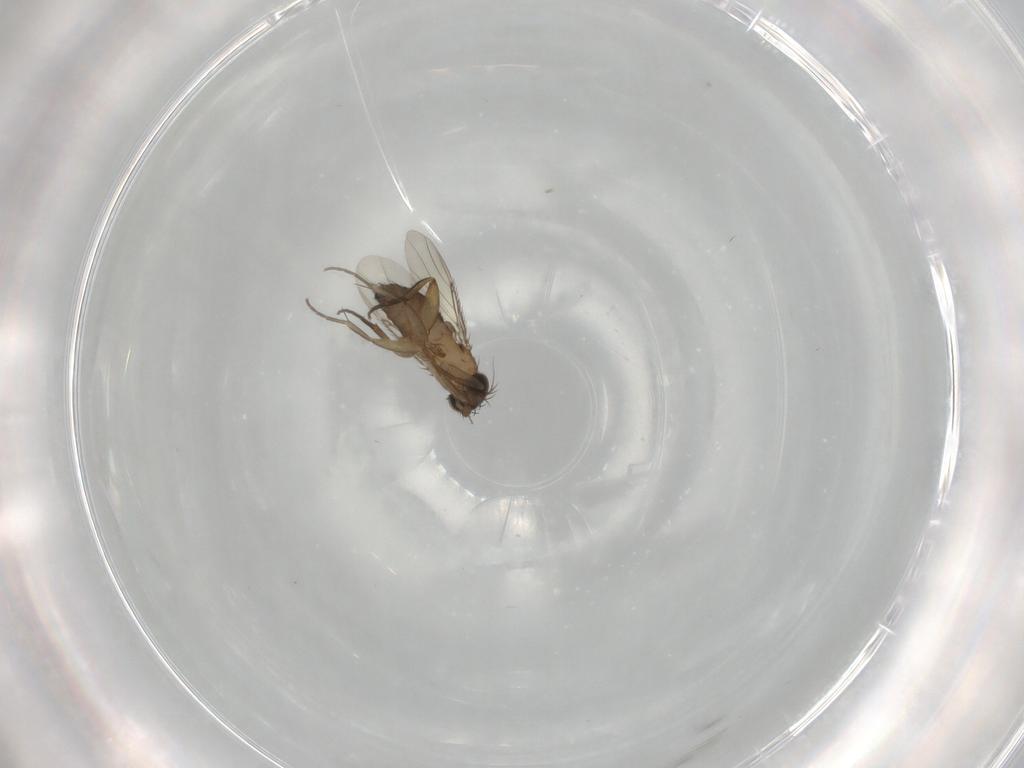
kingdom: Animalia
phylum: Arthropoda
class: Insecta
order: Diptera
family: Phoridae
